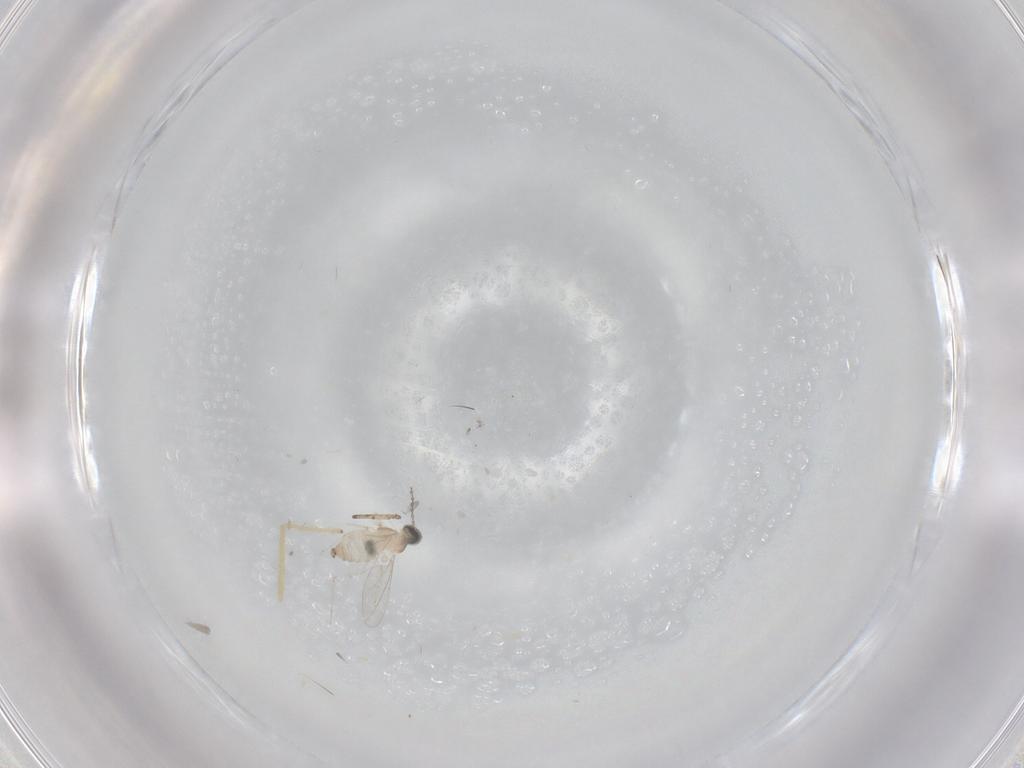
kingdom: Animalia
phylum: Arthropoda
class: Insecta
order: Diptera
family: Cecidomyiidae
